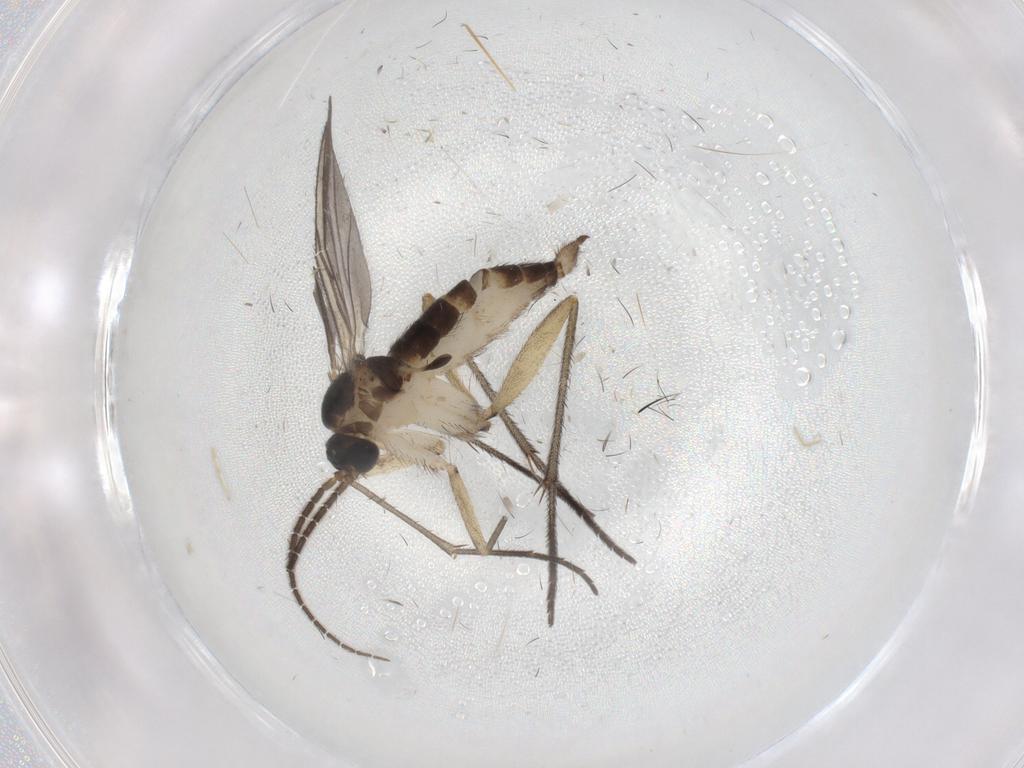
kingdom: Animalia
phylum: Arthropoda
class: Insecta
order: Diptera
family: Sciaridae
